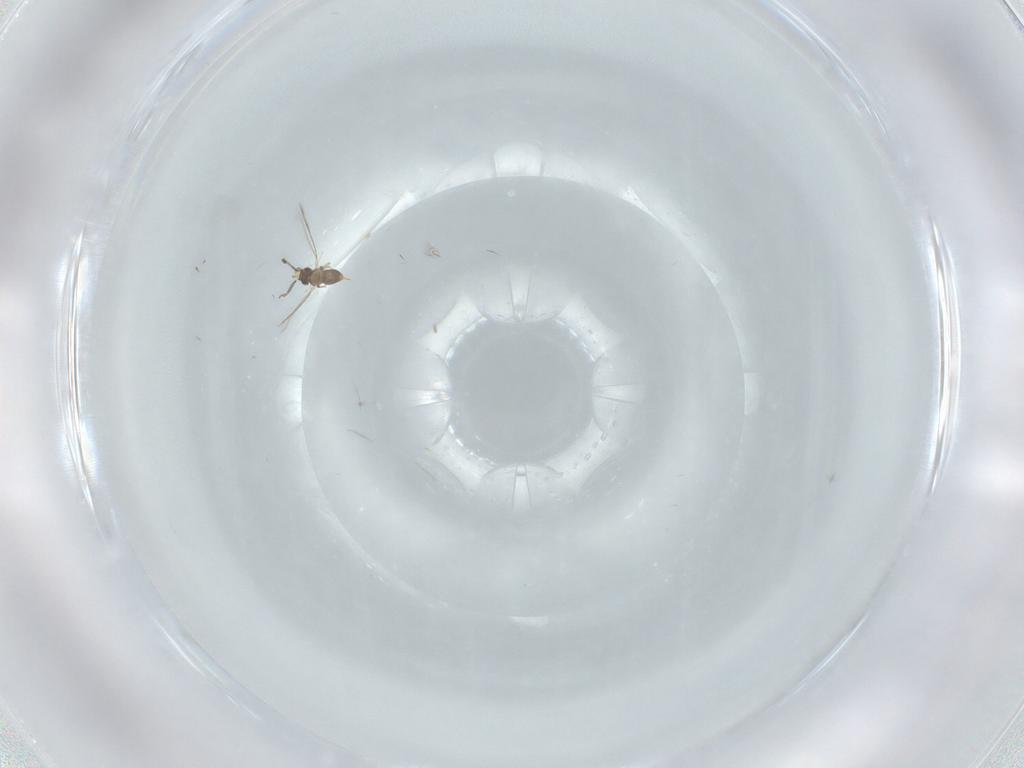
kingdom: Animalia
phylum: Arthropoda
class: Insecta
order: Hymenoptera
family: Mymaridae
